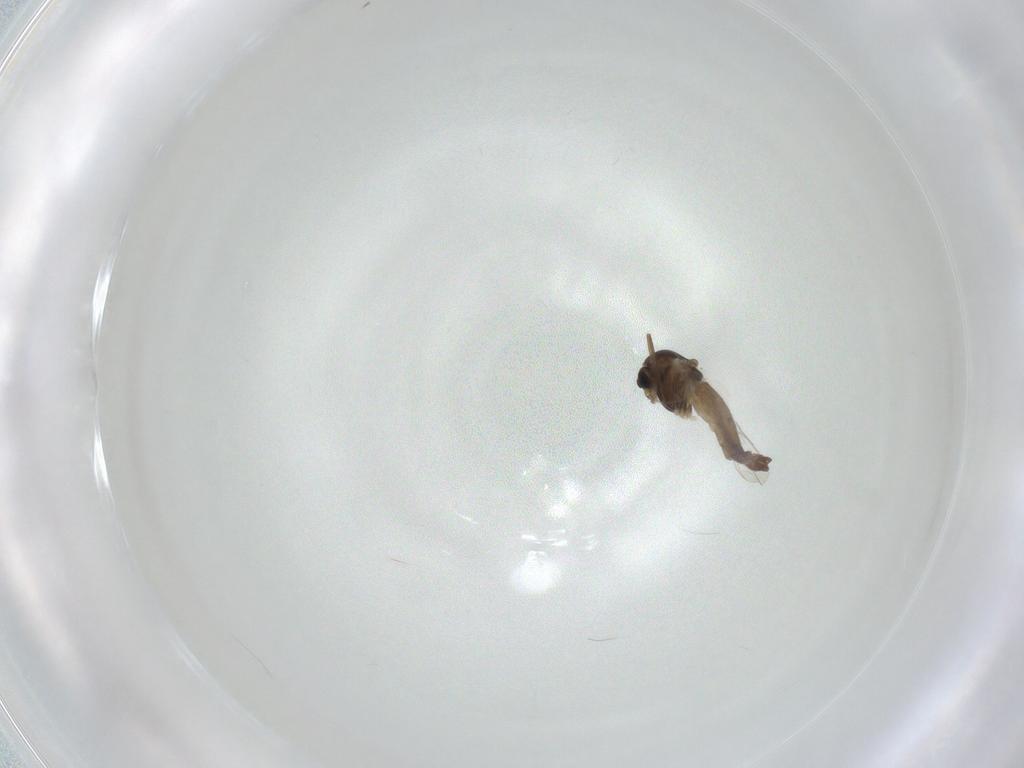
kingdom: Animalia
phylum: Arthropoda
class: Insecta
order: Diptera
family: Chironomidae
